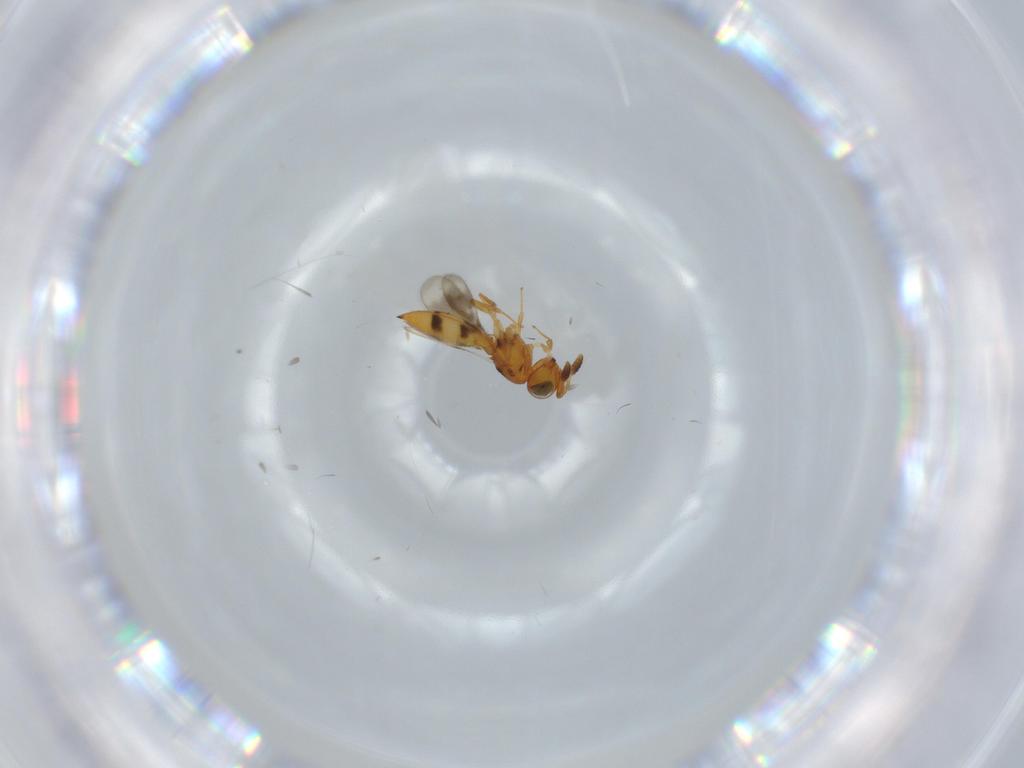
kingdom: Animalia
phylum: Arthropoda
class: Insecta
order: Hymenoptera
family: Scelionidae
